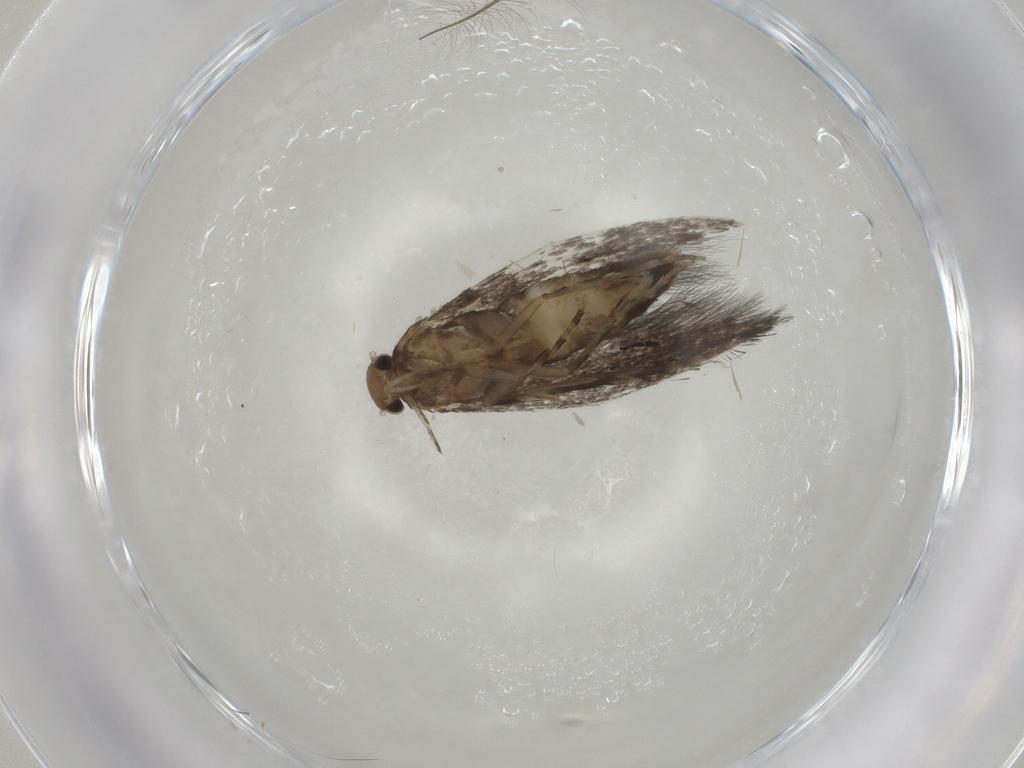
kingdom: Animalia
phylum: Arthropoda
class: Insecta
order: Lepidoptera
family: Elachistidae
